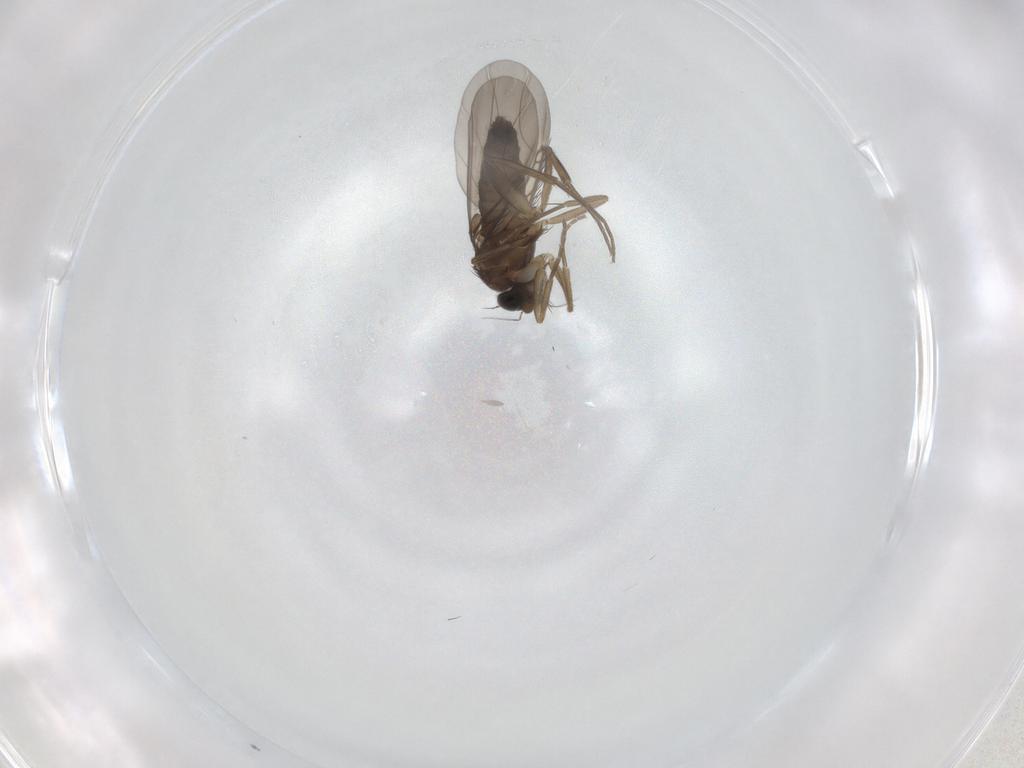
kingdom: Animalia
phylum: Arthropoda
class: Insecta
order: Diptera
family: Phoridae
